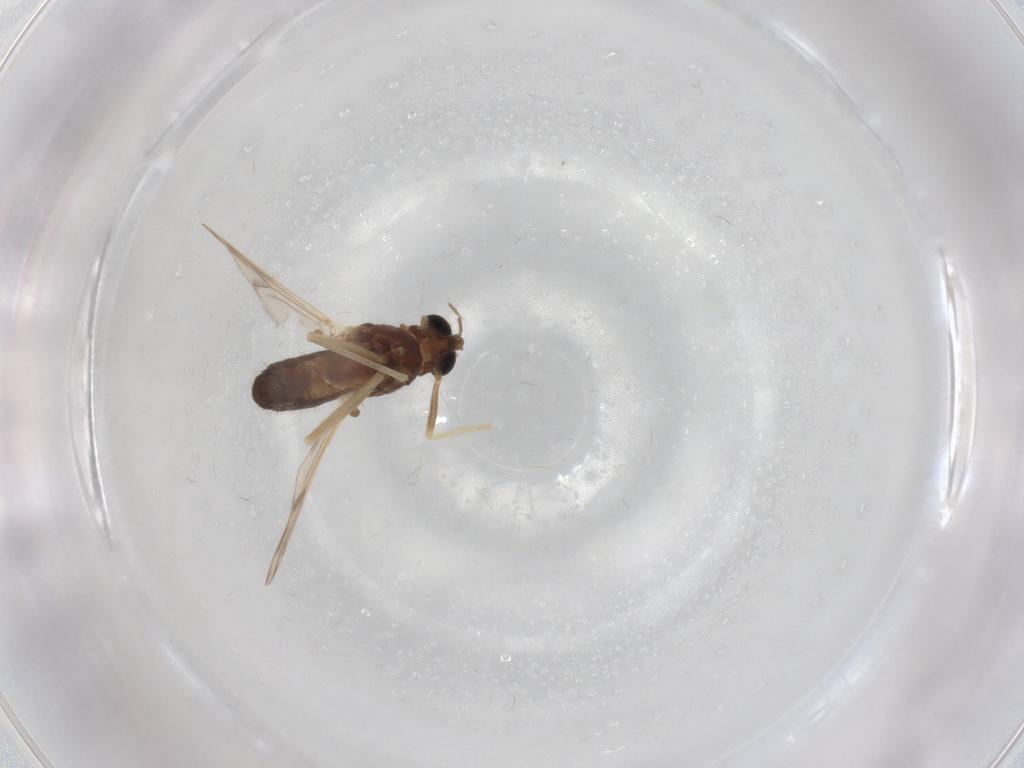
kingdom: Animalia
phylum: Arthropoda
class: Insecta
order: Diptera
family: Chironomidae
